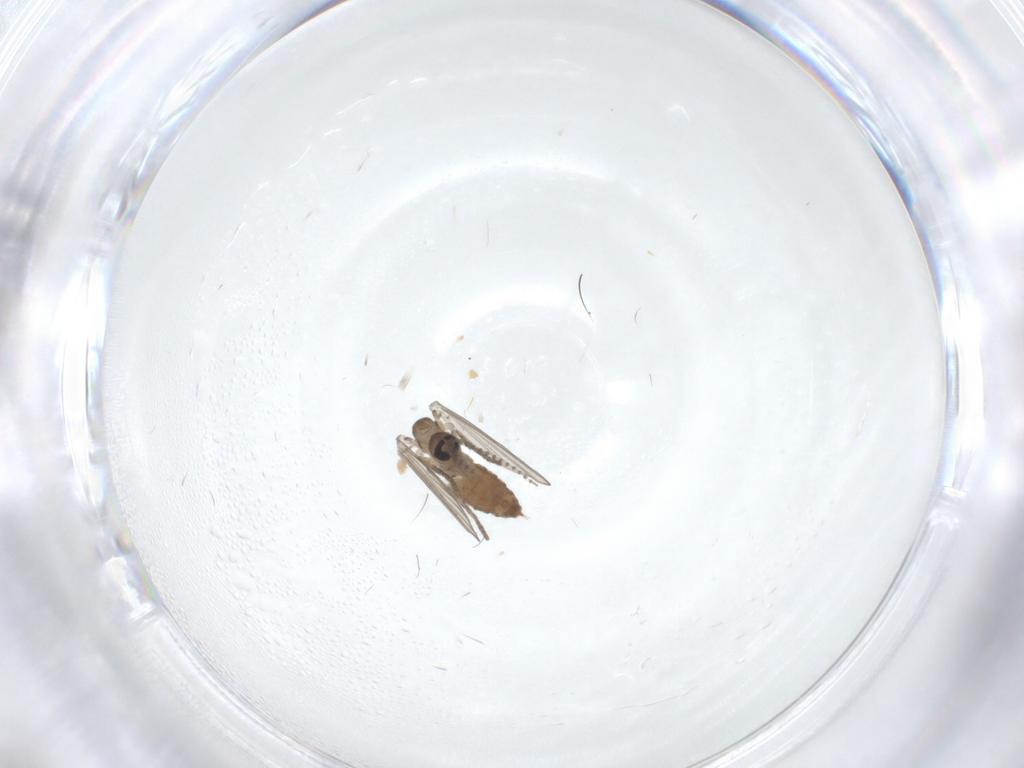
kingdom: Animalia
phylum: Arthropoda
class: Insecta
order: Diptera
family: Psychodidae
